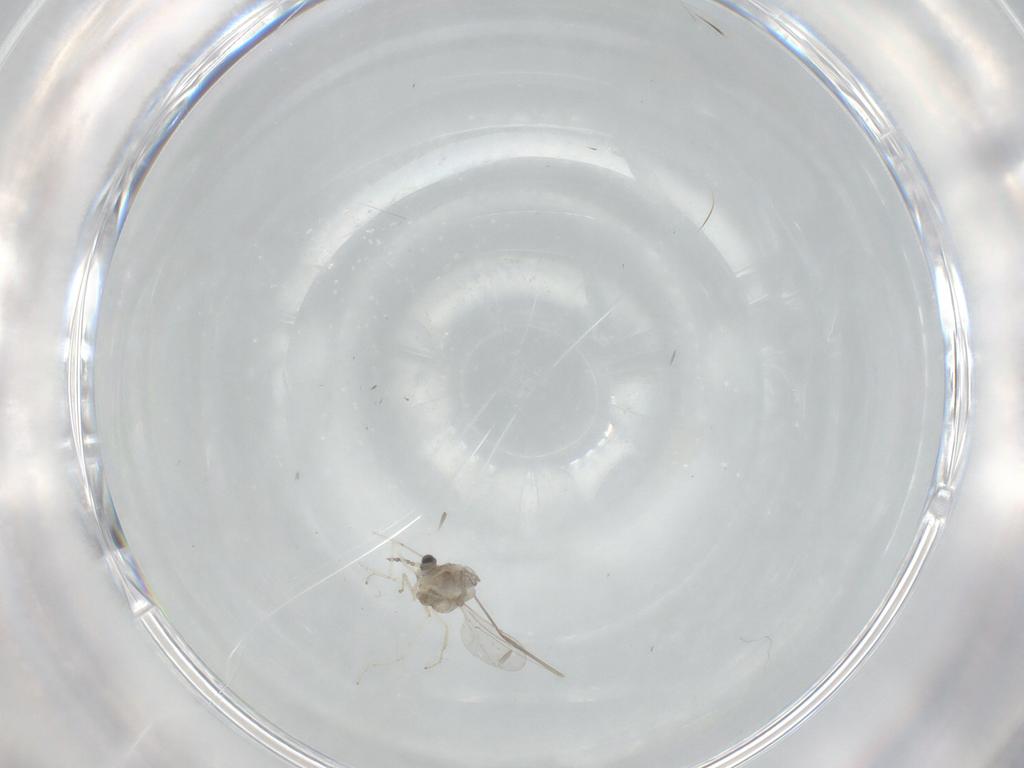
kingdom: Animalia
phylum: Arthropoda
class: Insecta
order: Diptera
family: Cecidomyiidae
